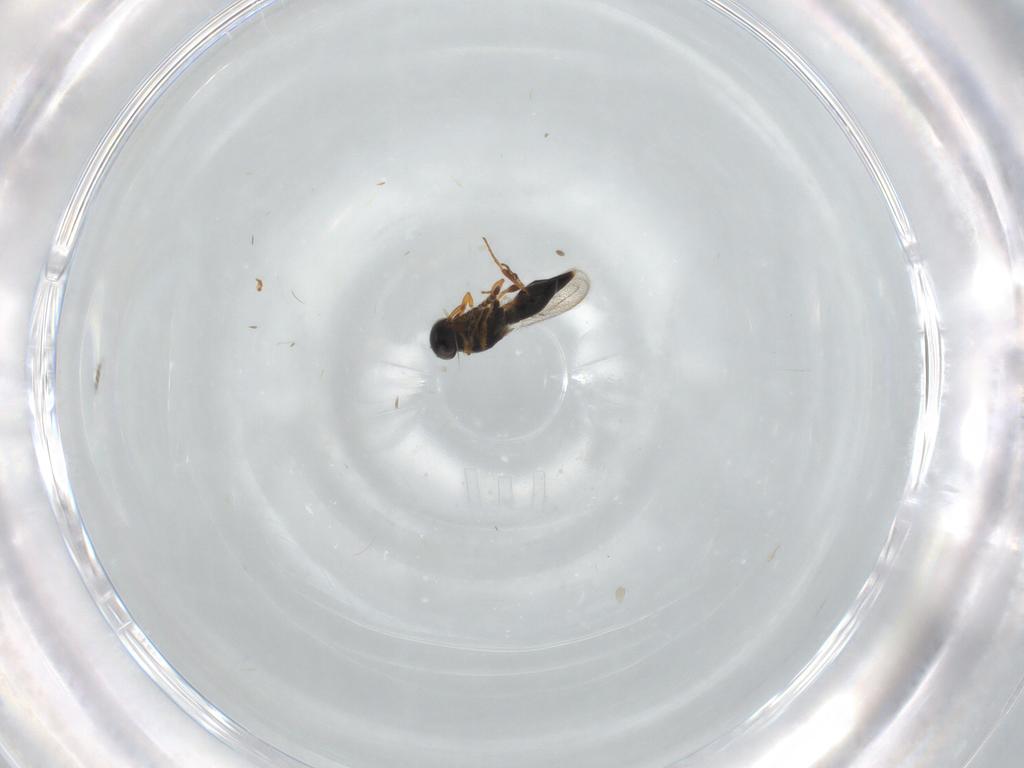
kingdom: Animalia
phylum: Arthropoda
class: Insecta
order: Hymenoptera
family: Platygastridae
